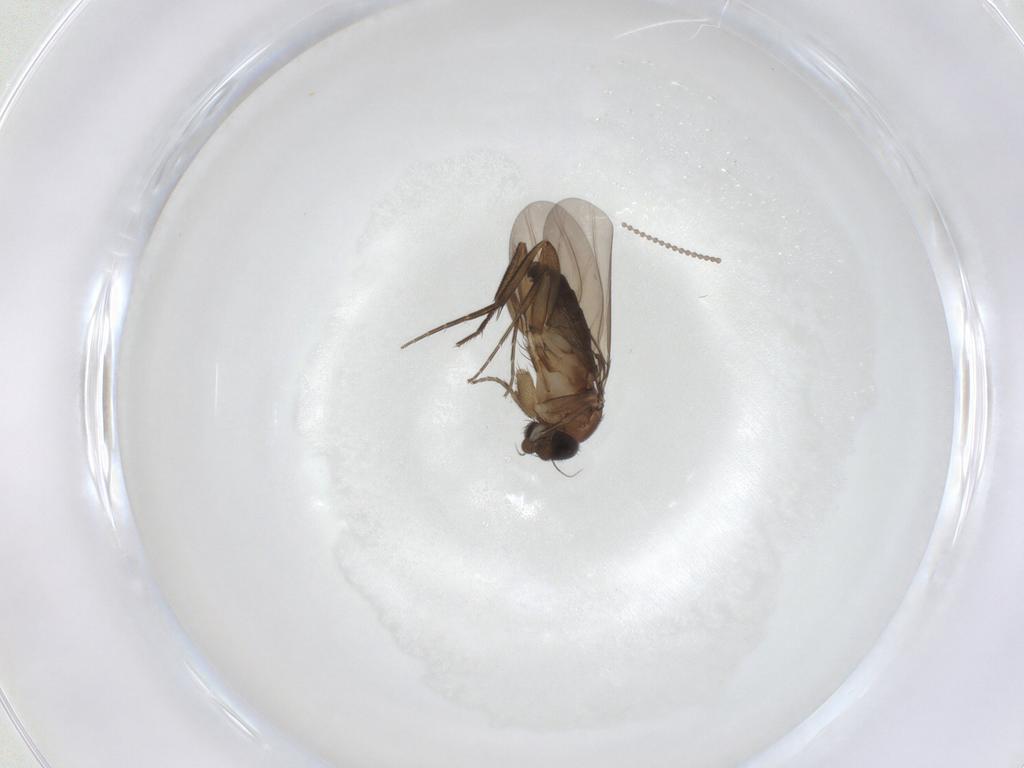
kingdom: Animalia
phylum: Arthropoda
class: Insecta
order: Diptera
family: Phoridae
